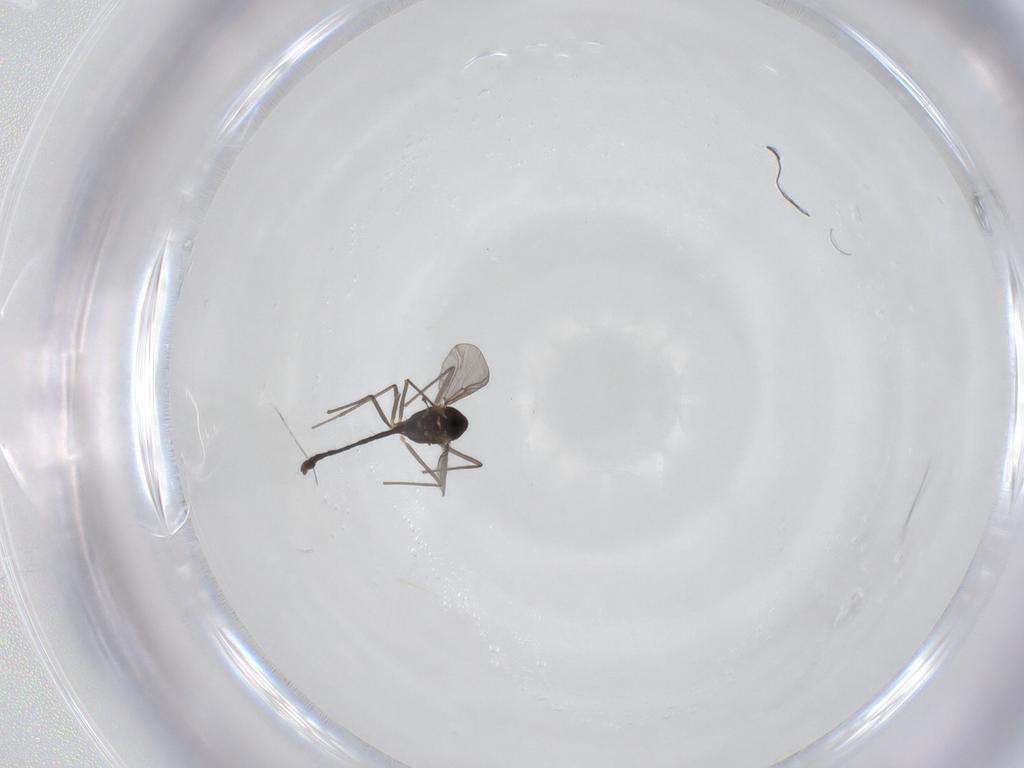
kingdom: Animalia
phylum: Arthropoda
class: Insecta
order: Diptera
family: Chironomidae
